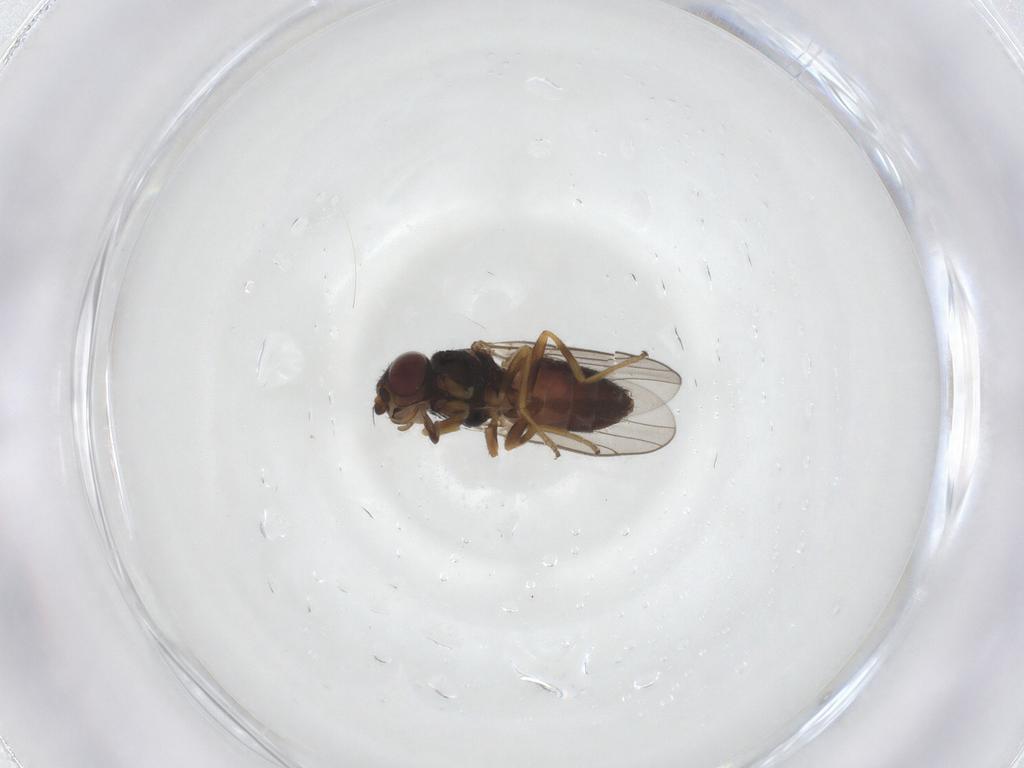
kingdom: Animalia
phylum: Arthropoda
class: Insecta
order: Diptera
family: Chloropidae
